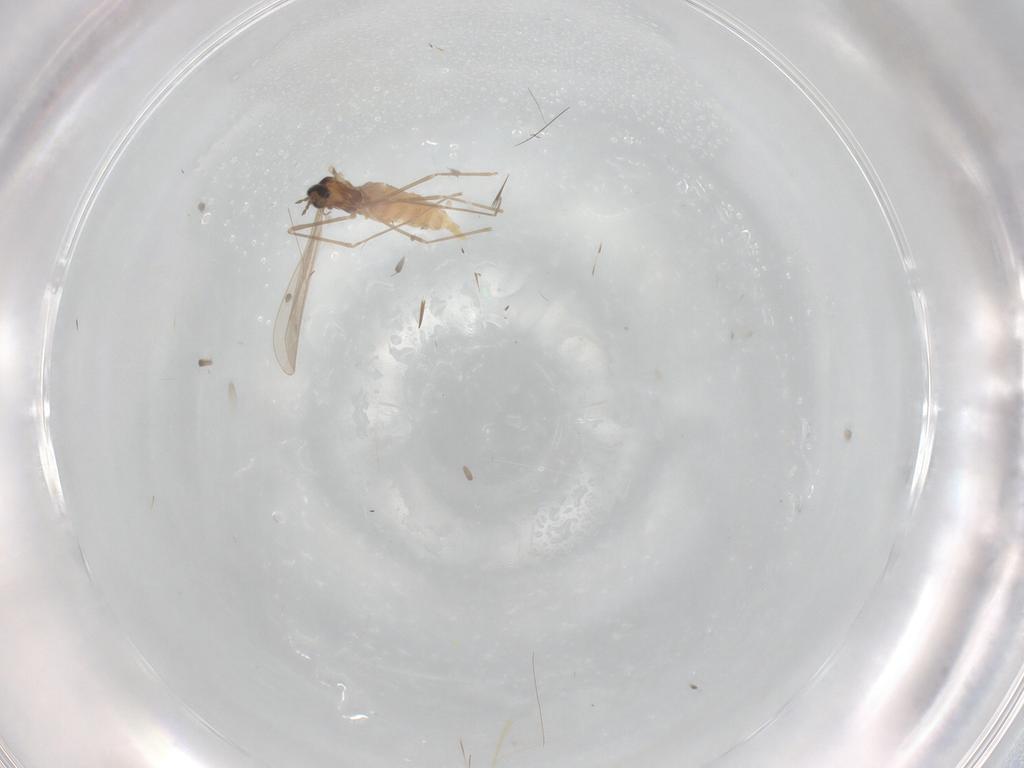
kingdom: Animalia
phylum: Arthropoda
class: Insecta
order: Diptera
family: Cecidomyiidae
